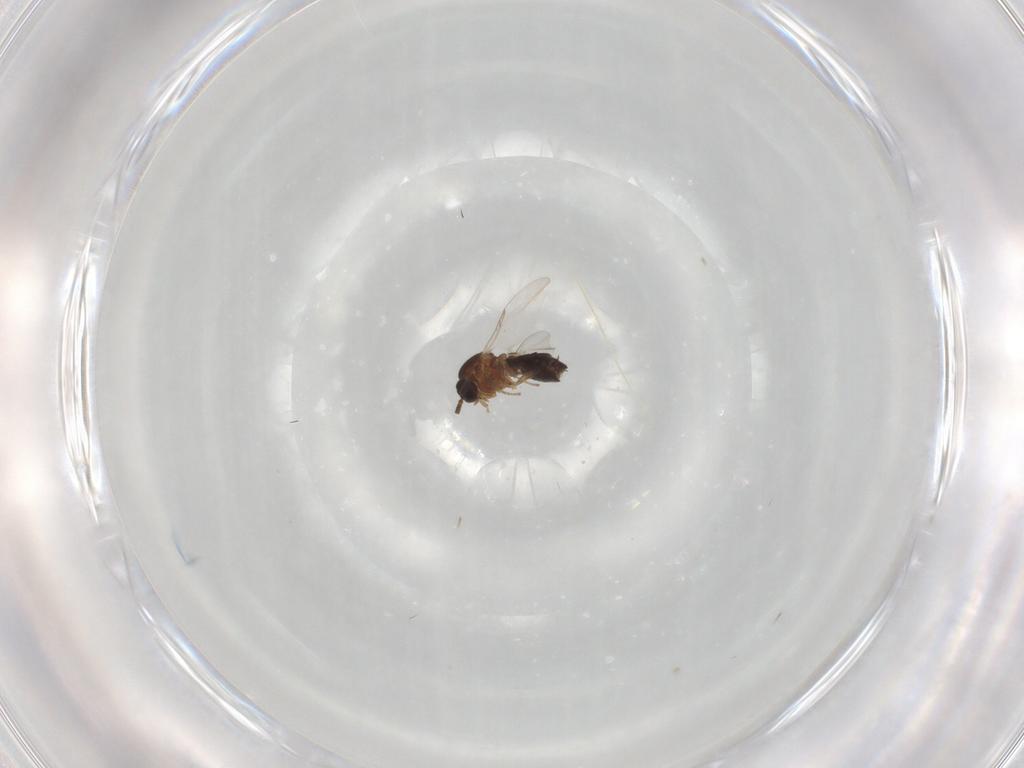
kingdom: Animalia
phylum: Arthropoda
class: Insecta
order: Diptera
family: Scatopsidae
